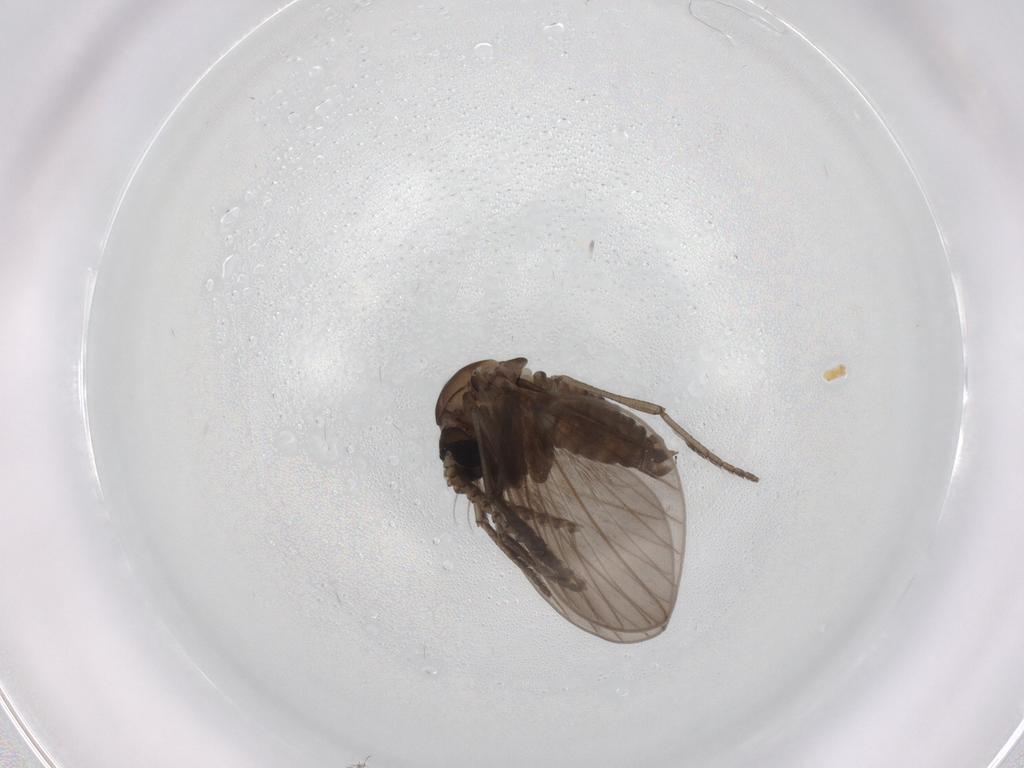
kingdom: Animalia
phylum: Arthropoda
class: Insecta
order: Diptera
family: Psychodidae
